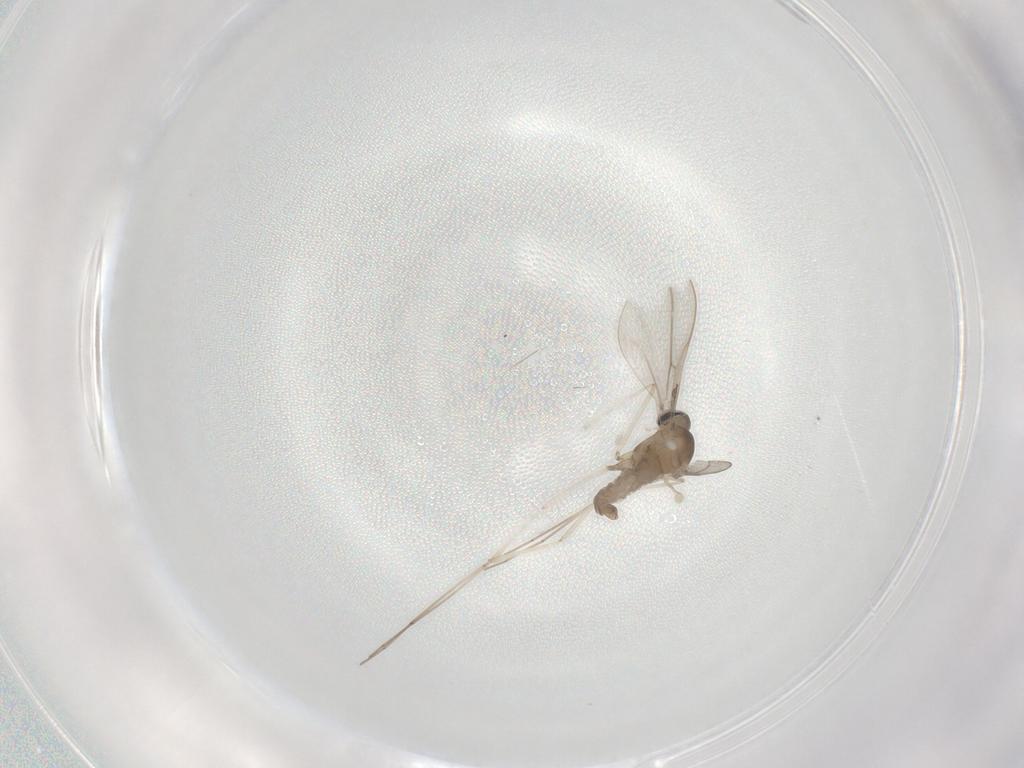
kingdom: Animalia
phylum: Arthropoda
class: Insecta
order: Diptera
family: Cecidomyiidae
